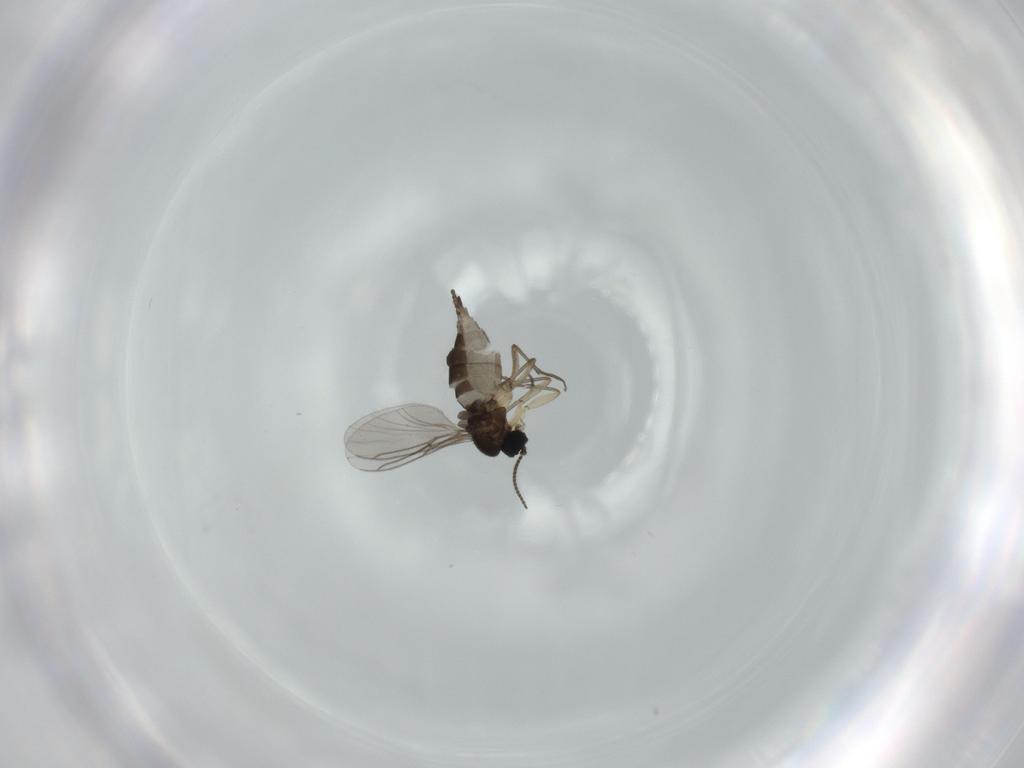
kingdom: Animalia
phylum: Arthropoda
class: Insecta
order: Diptera
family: Sciaridae
